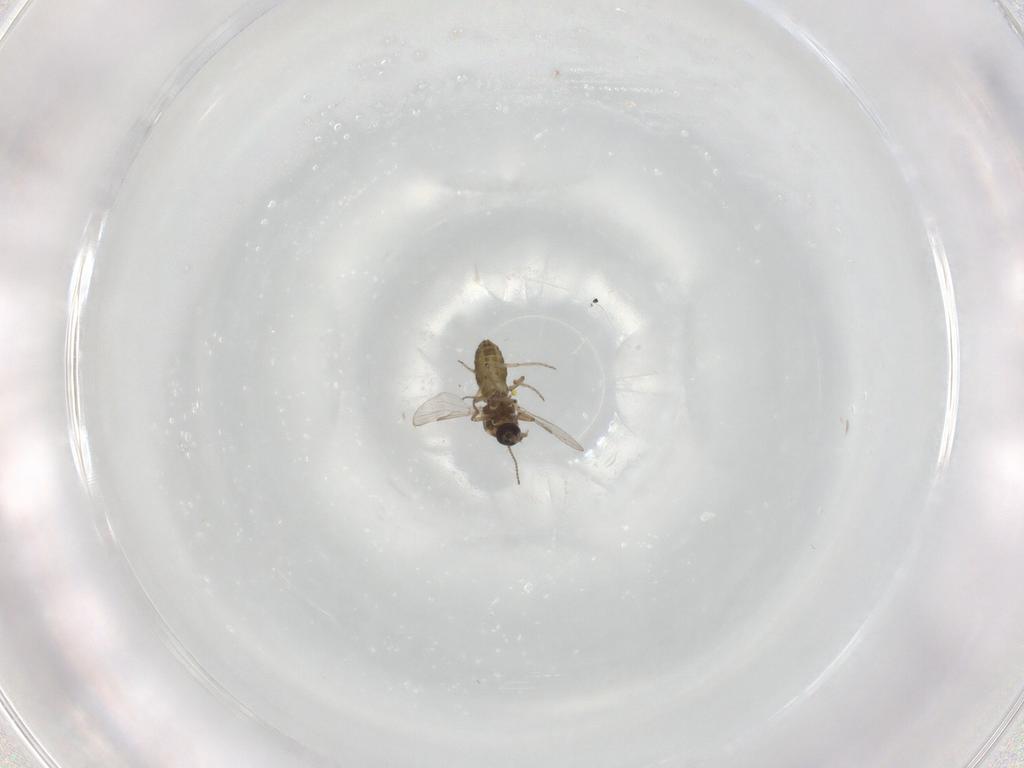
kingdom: Animalia
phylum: Arthropoda
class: Insecta
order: Diptera
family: Ceratopogonidae
